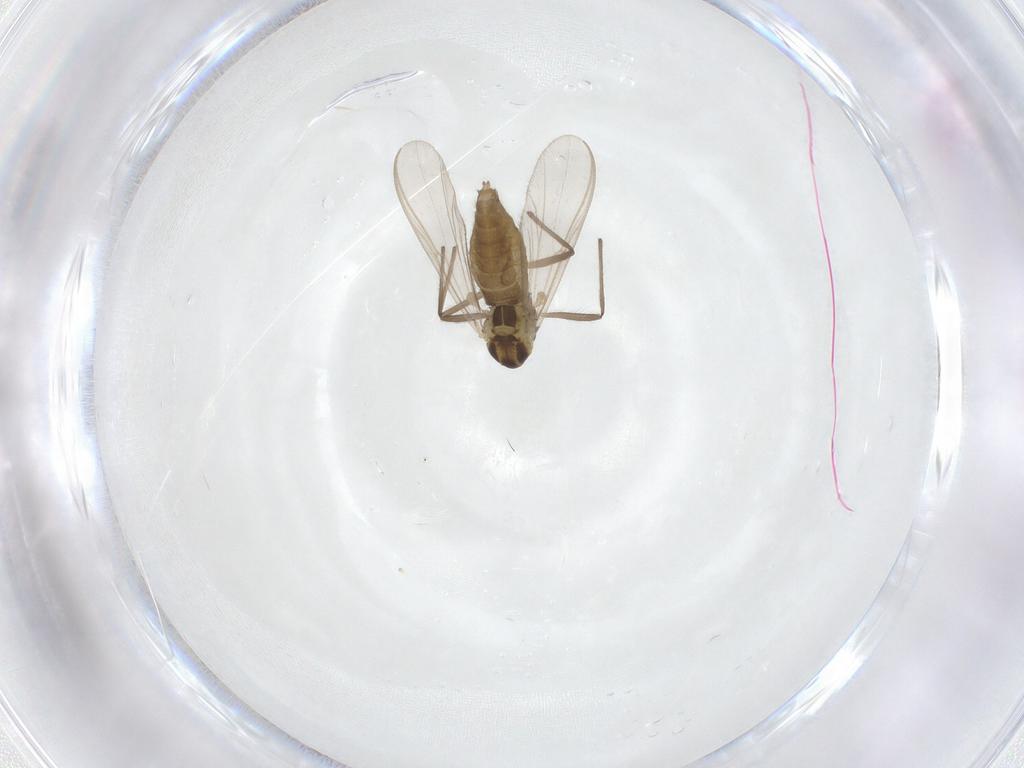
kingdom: Animalia
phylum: Arthropoda
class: Insecta
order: Diptera
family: Chironomidae
